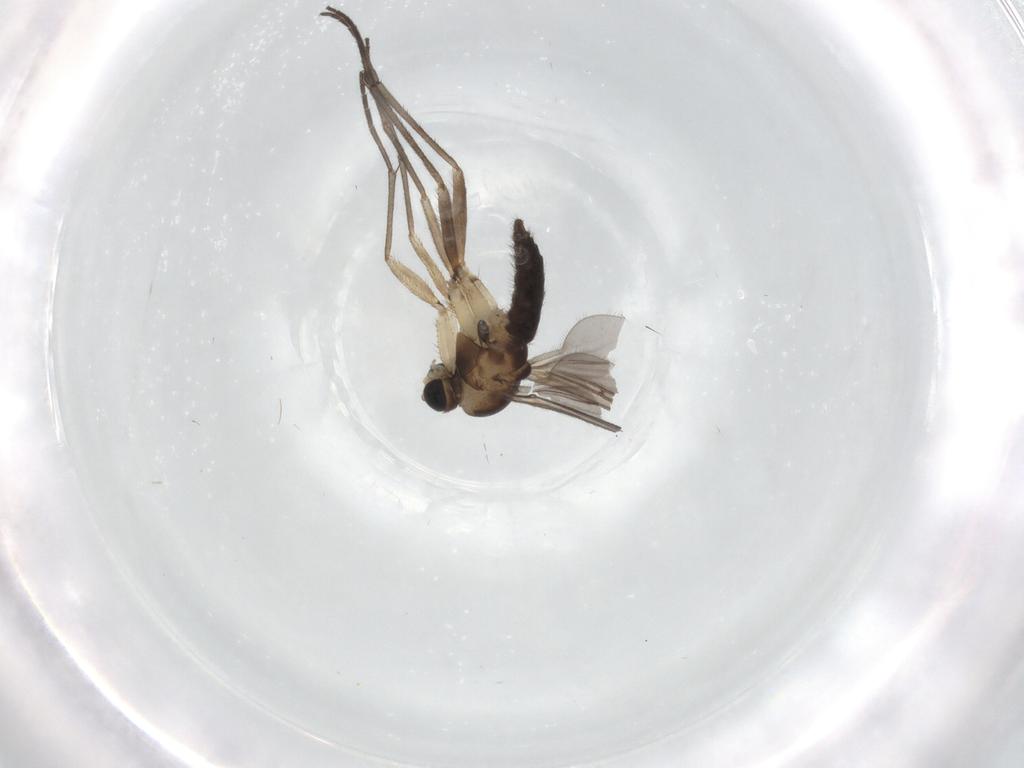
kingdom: Animalia
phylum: Arthropoda
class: Insecta
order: Diptera
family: Sciaridae
